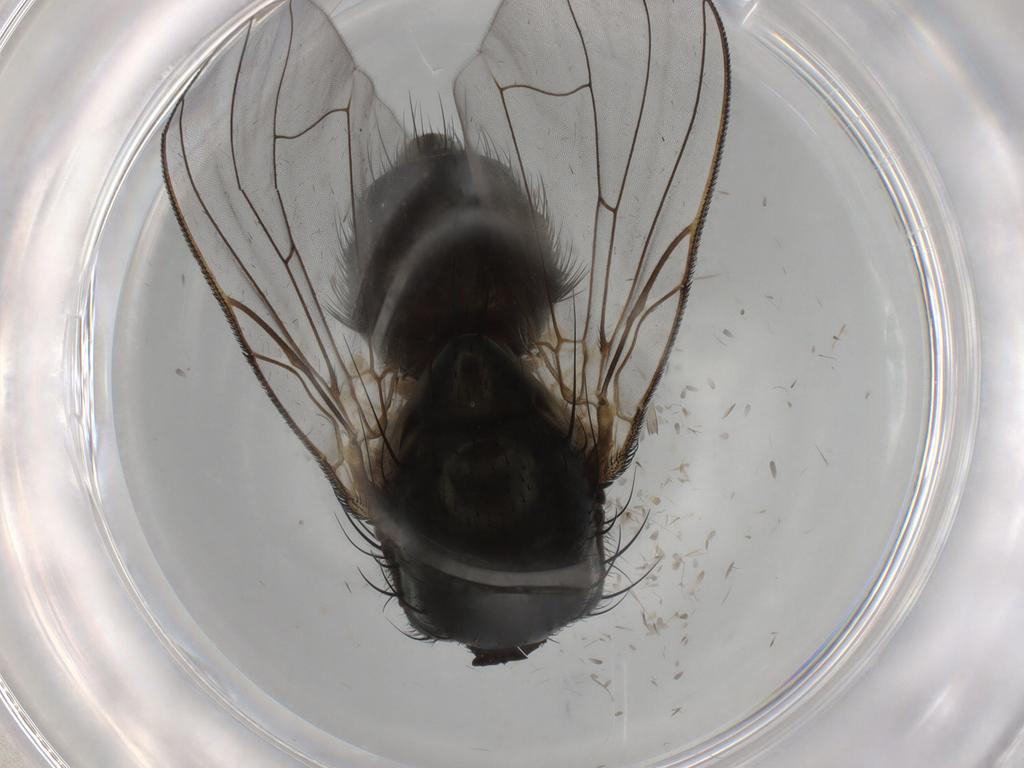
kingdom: Animalia
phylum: Arthropoda
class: Insecta
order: Diptera
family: Muscidae
